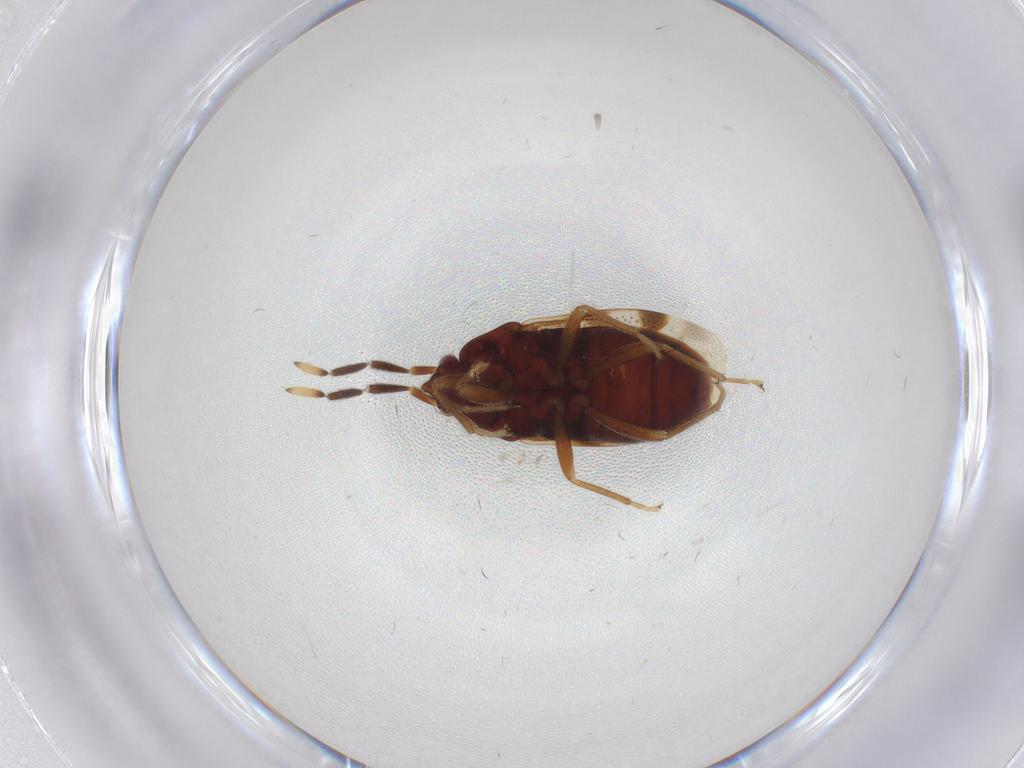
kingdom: Animalia
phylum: Arthropoda
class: Insecta
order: Hemiptera
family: Rhyparochromidae
